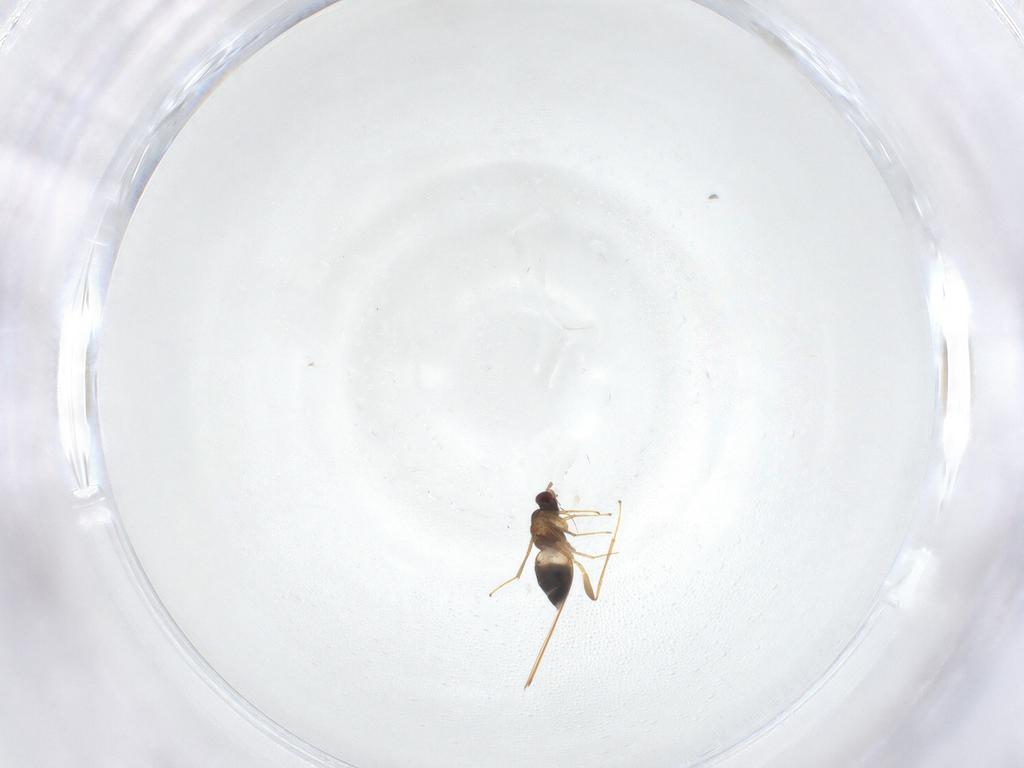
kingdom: Animalia
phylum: Arthropoda
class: Insecta
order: Hymenoptera
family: Mymaridae
